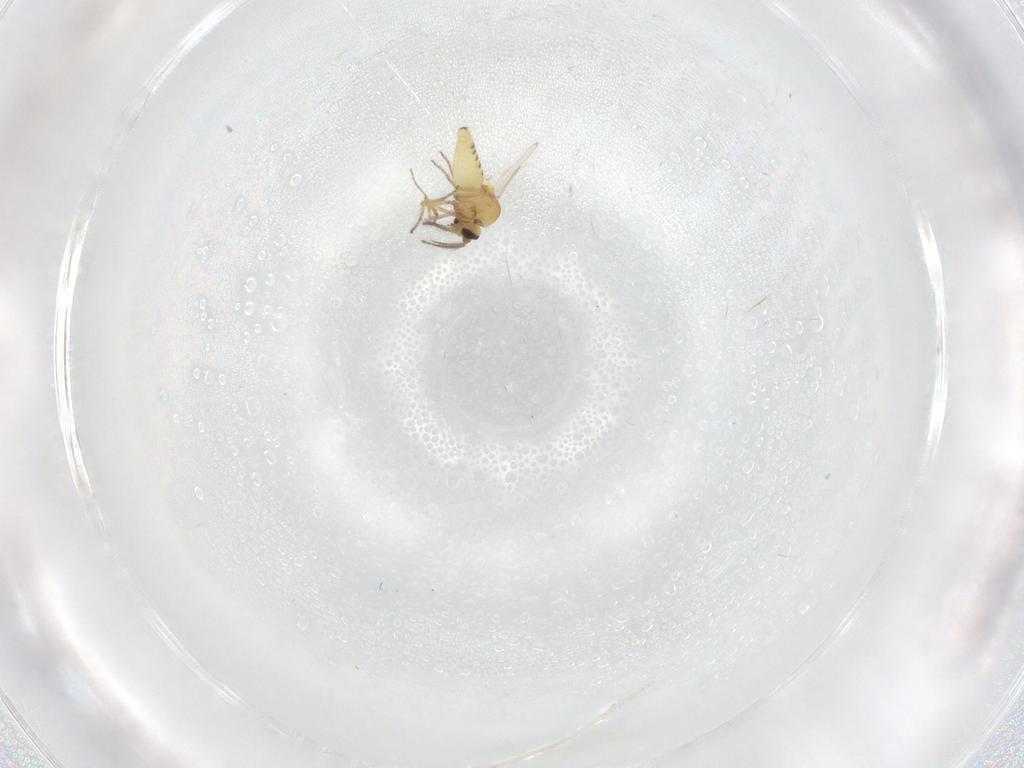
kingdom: Animalia
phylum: Arthropoda
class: Insecta
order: Diptera
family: Ceratopogonidae
